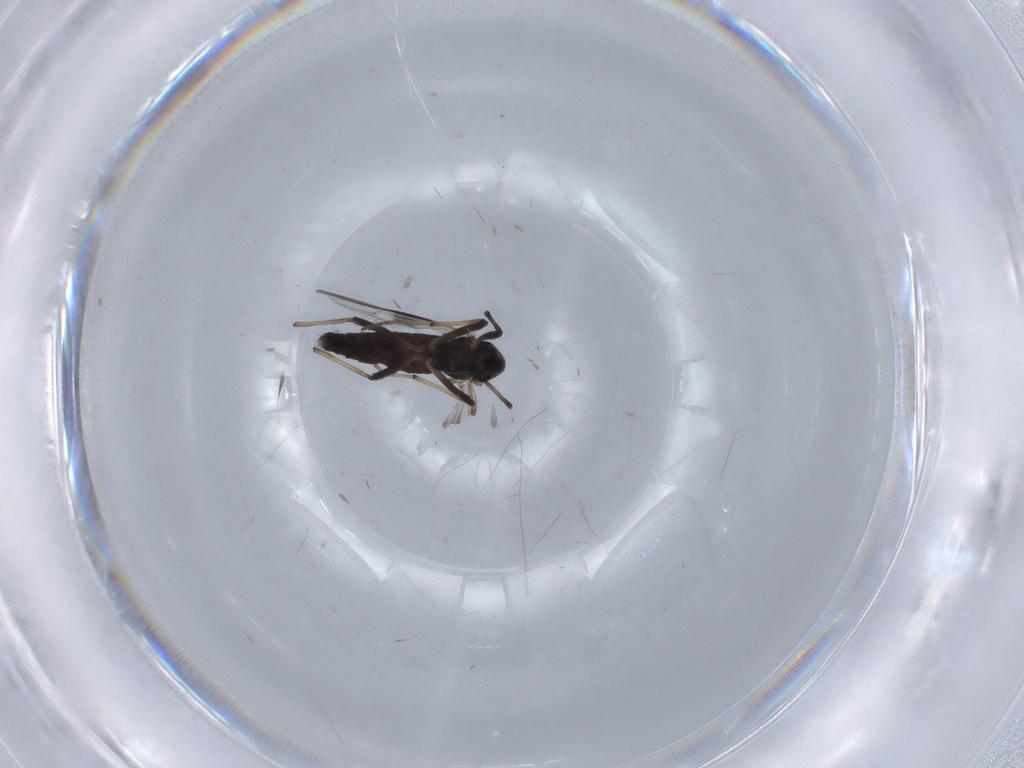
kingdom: Animalia
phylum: Arthropoda
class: Insecta
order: Diptera
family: Chironomidae
